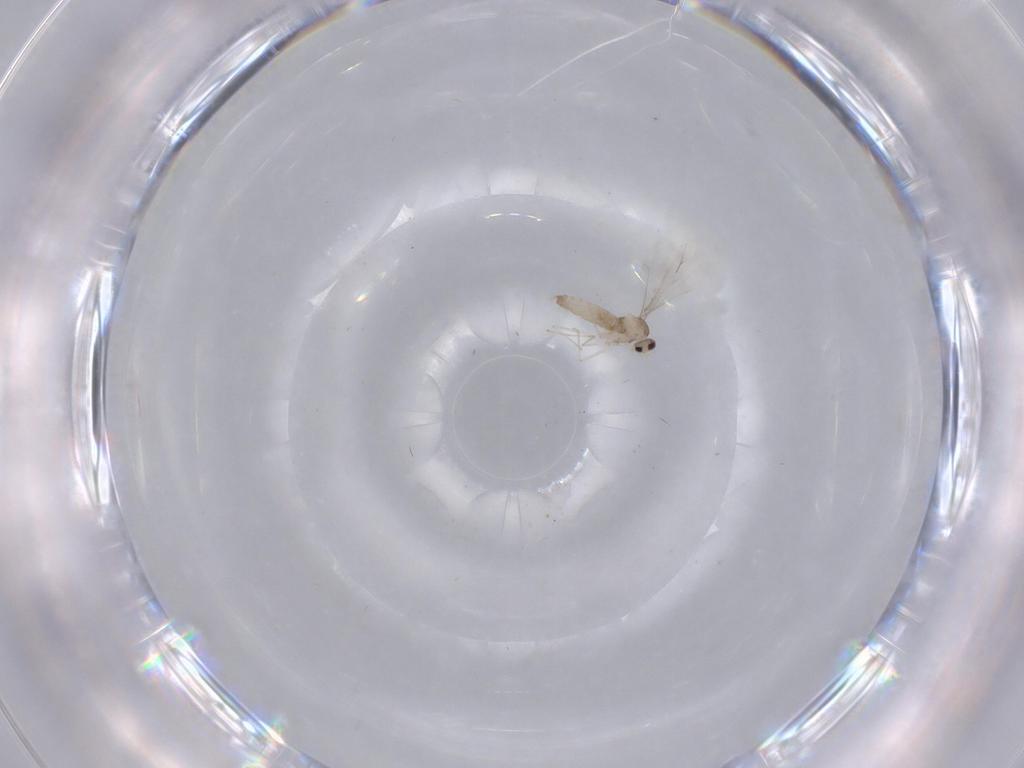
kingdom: Animalia
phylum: Arthropoda
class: Insecta
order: Diptera
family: Cecidomyiidae
